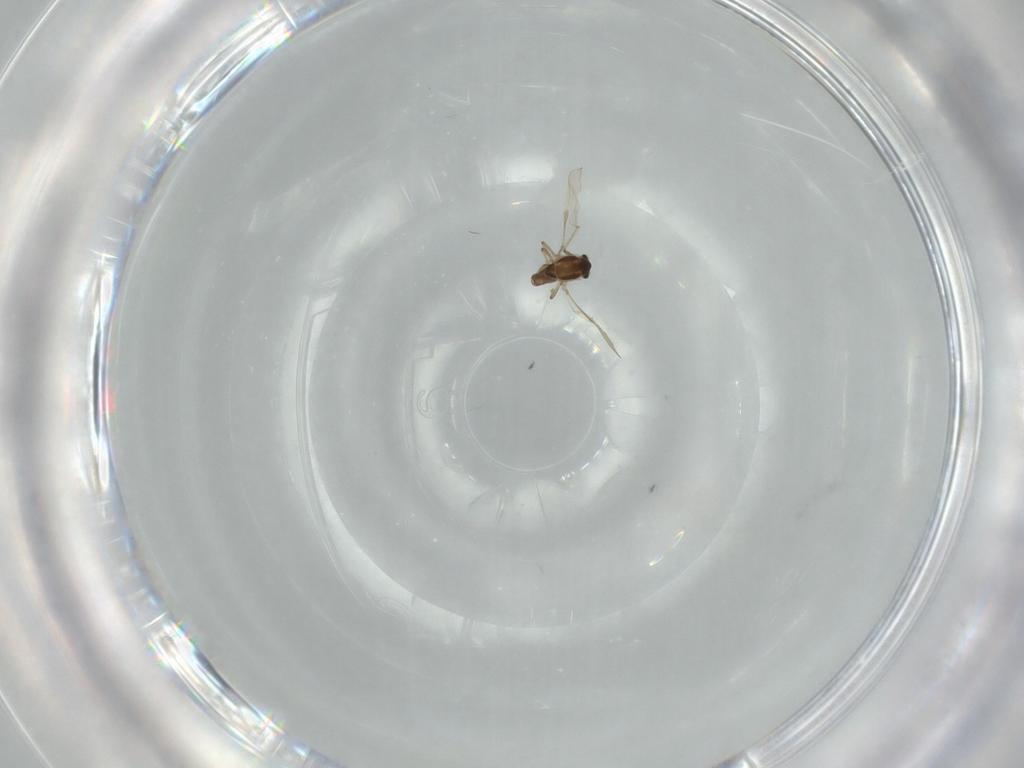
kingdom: Animalia
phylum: Arthropoda
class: Insecta
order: Diptera
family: Chironomidae
